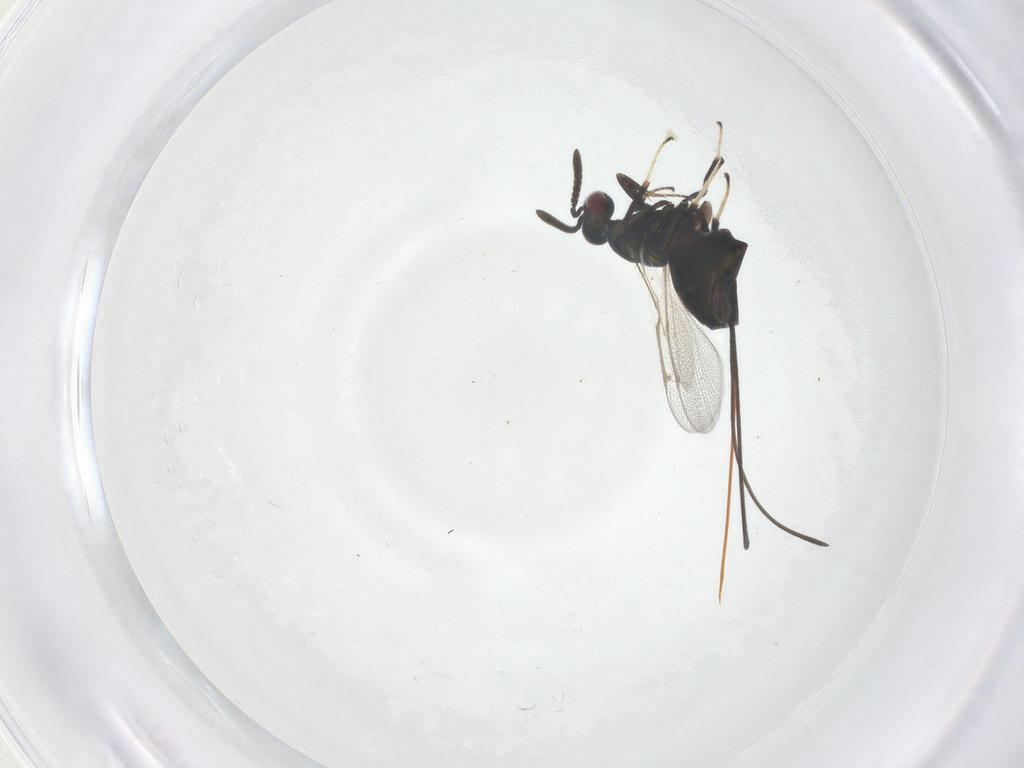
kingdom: Animalia
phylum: Arthropoda
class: Insecta
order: Hymenoptera
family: Torymidae
